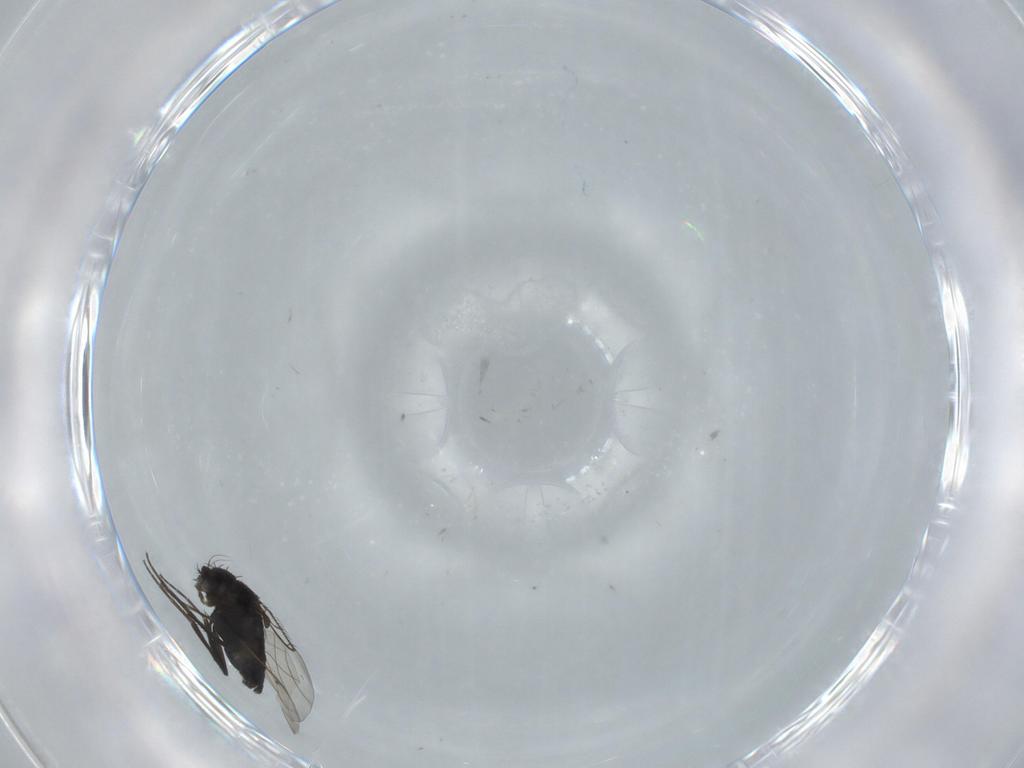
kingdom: Animalia
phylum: Arthropoda
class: Insecta
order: Diptera
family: Phoridae
